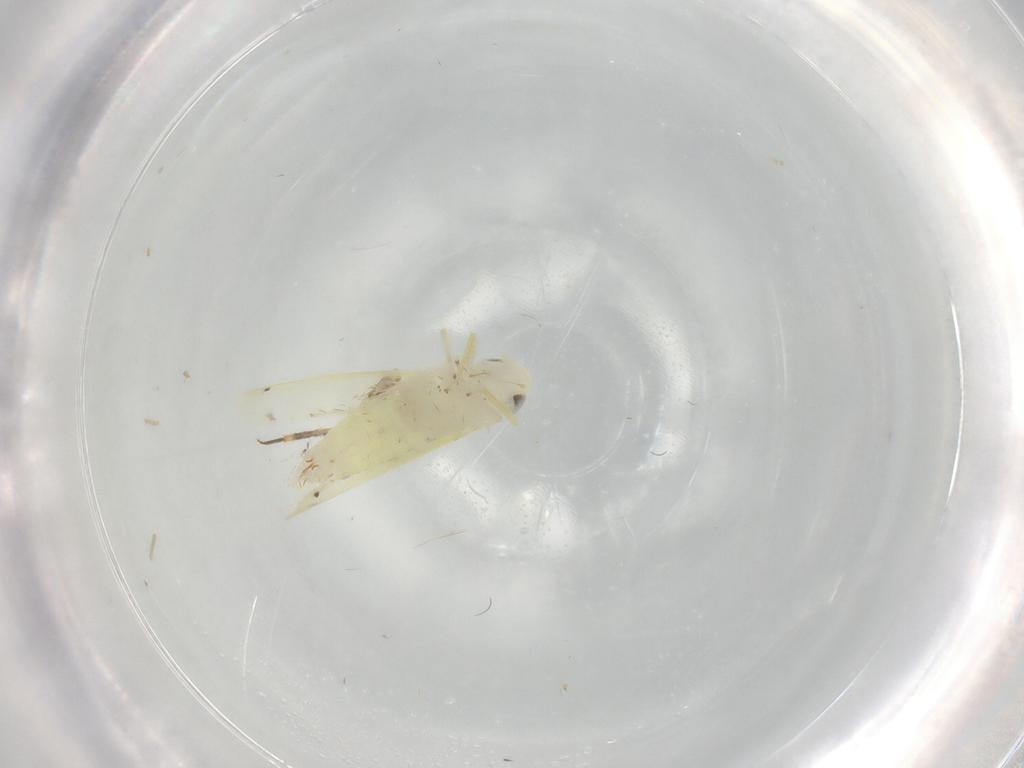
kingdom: Animalia
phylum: Arthropoda
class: Insecta
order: Hemiptera
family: Cicadellidae
